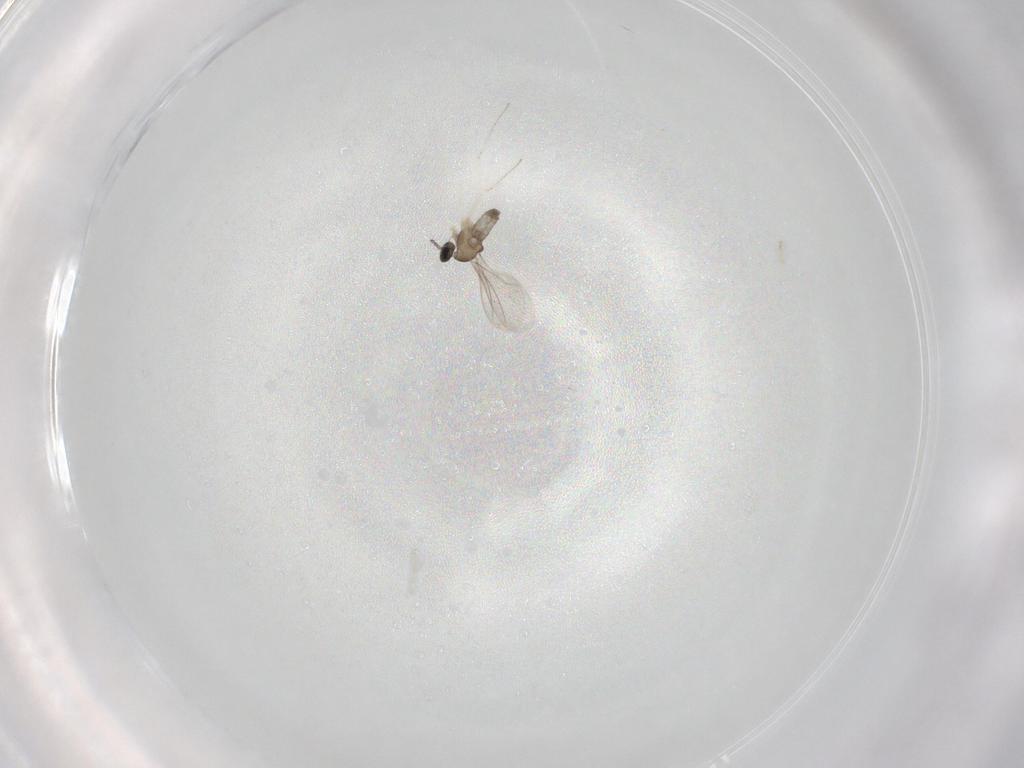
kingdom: Animalia
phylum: Arthropoda
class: Insecta
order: Diptera
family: Cecidomyiidae
